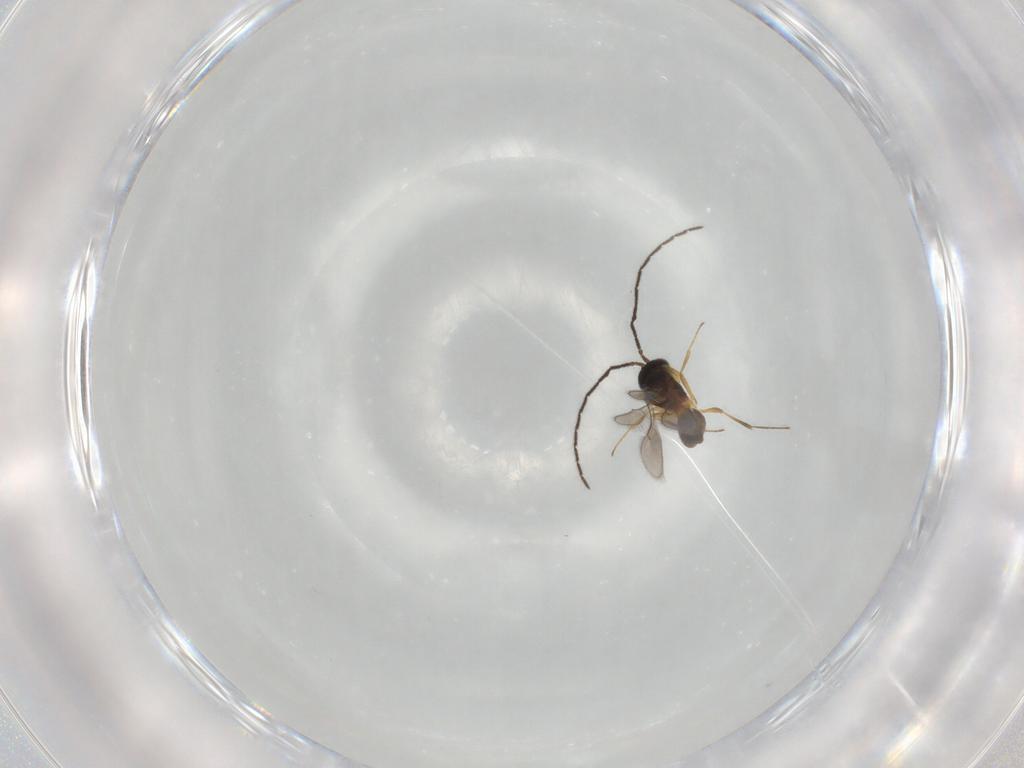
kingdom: Animalia
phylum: Arthropoda
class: Insecta
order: Hymenoptera
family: Scelionidae
